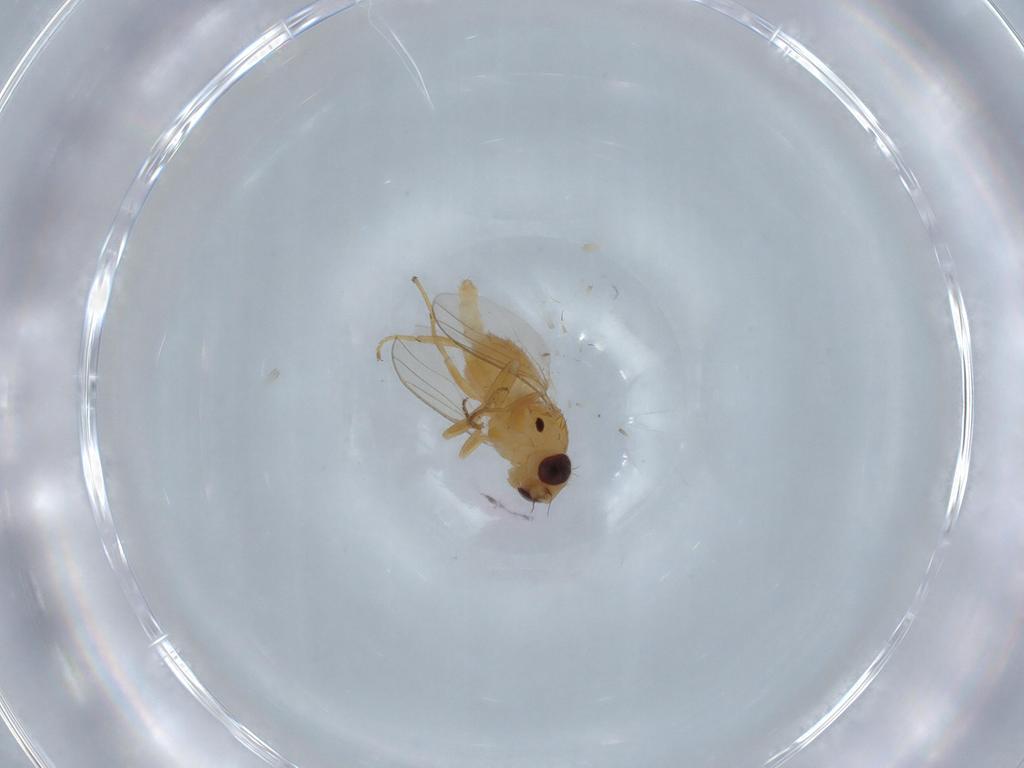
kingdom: Animalia
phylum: Arthropoda
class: Insecta
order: Diptera
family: Chloropidae
